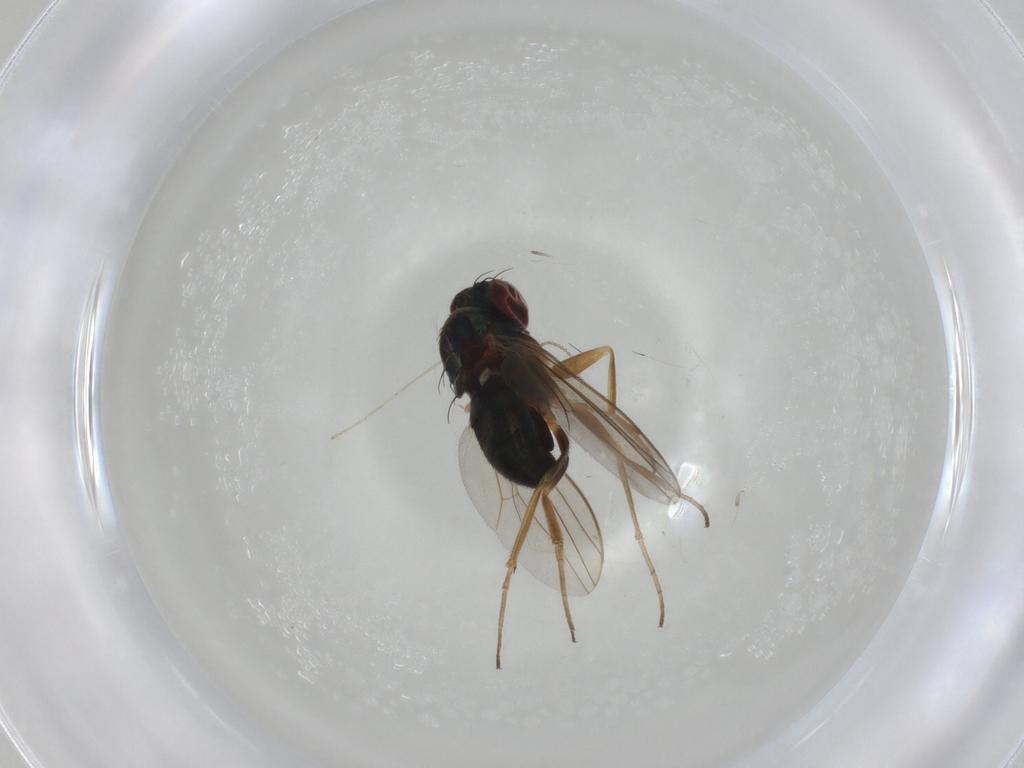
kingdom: Animalia
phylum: Arthropoda
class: Insecta
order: Diptera
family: Dolichopodidae
